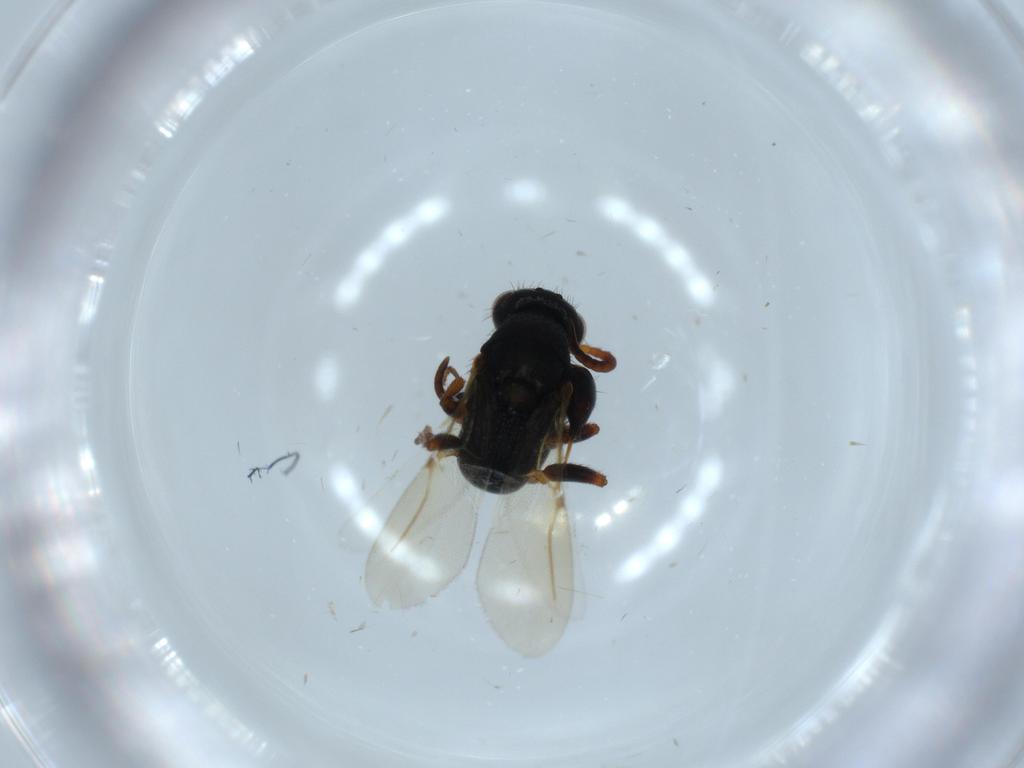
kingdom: Animalia
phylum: Arthropoda
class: Insecta
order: Hymenoptera
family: Bethylidae
